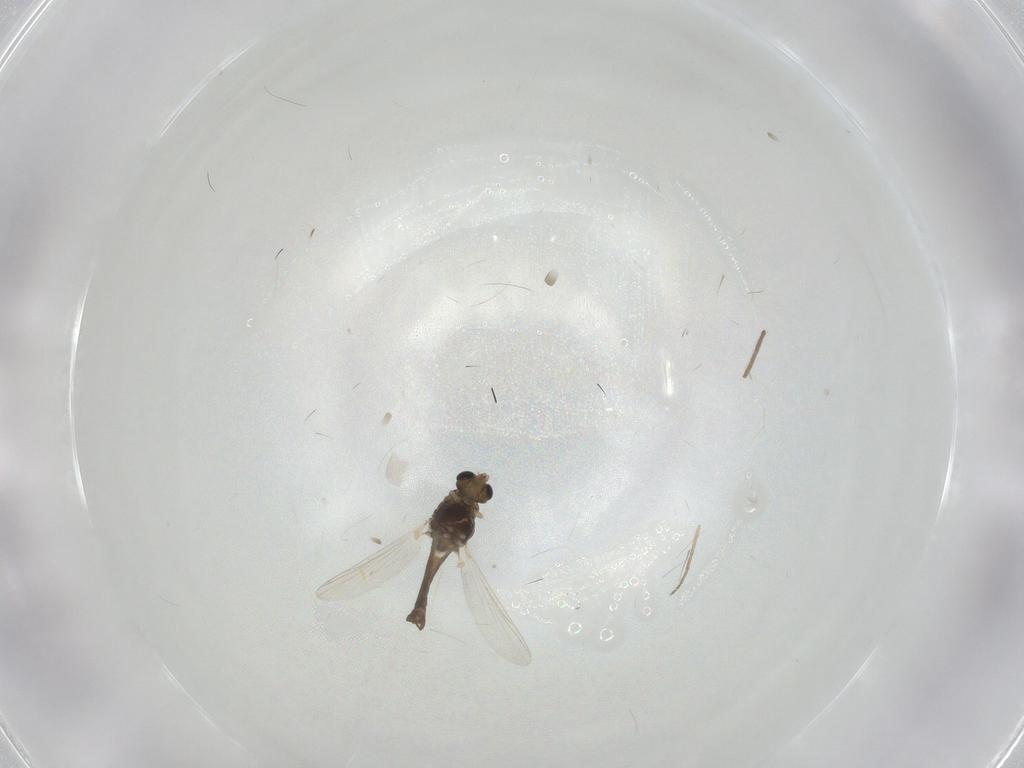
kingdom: Animalia
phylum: Arthropoda
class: Insecta
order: Diptera
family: Chironomidae
